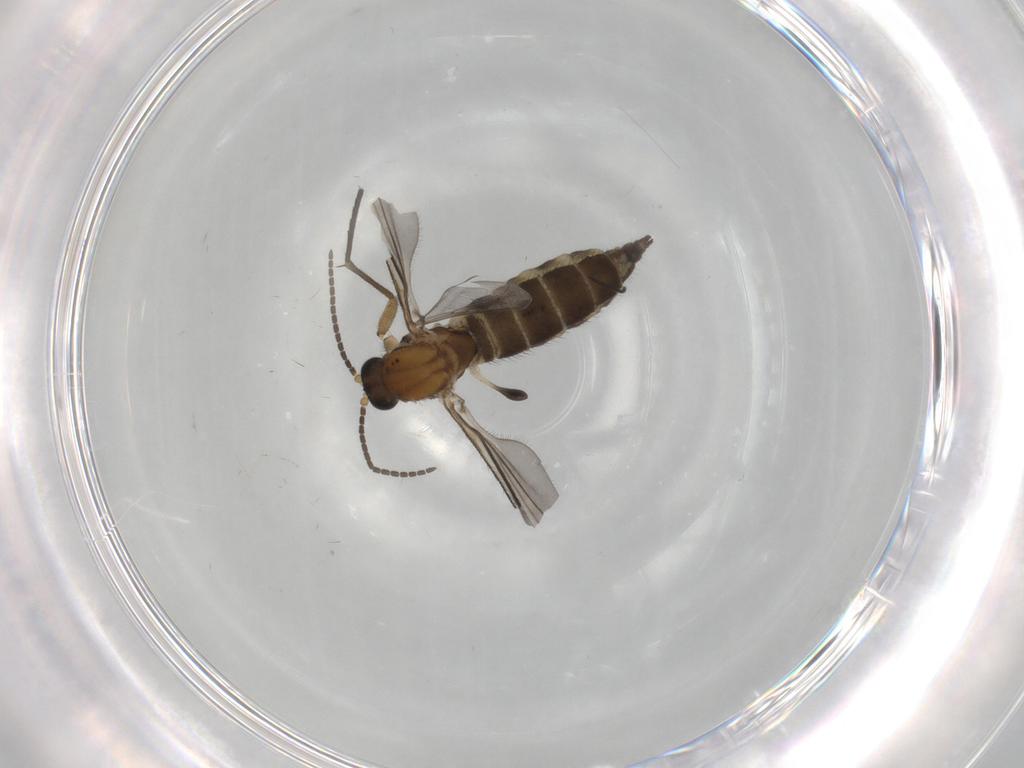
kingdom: Animalia
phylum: Arthropoda
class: Insecta
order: Diptera
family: Sciaridae
